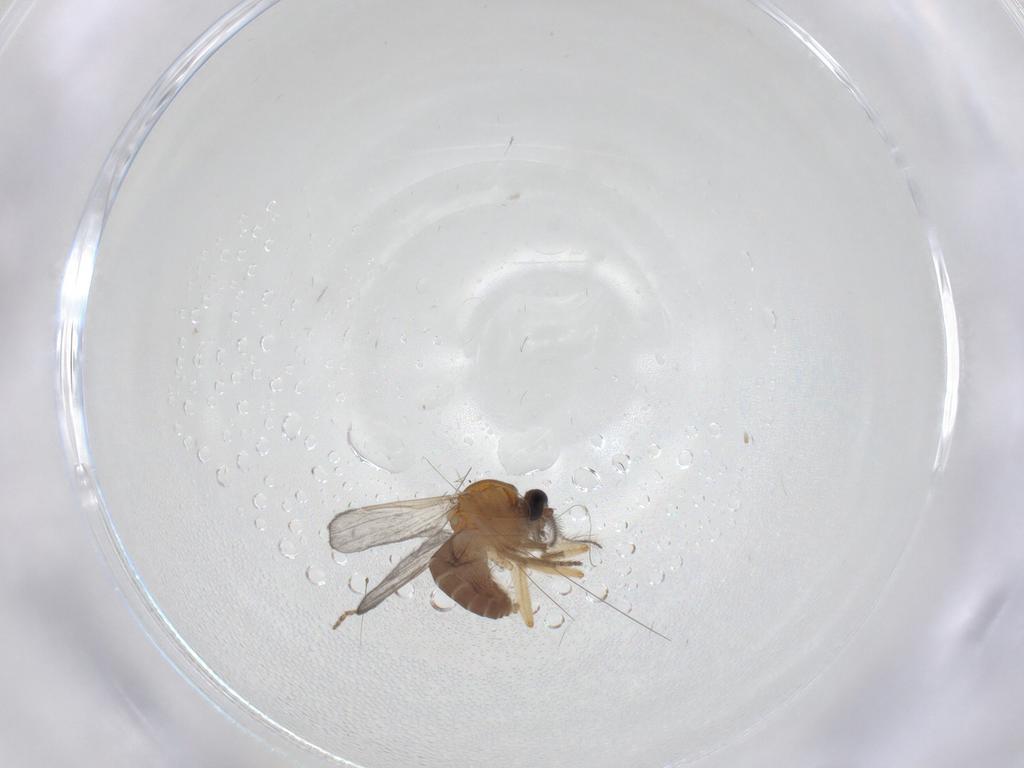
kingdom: Animalia
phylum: Arthropoda
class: Insecta
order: Diptera
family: Ceratopogonidae
